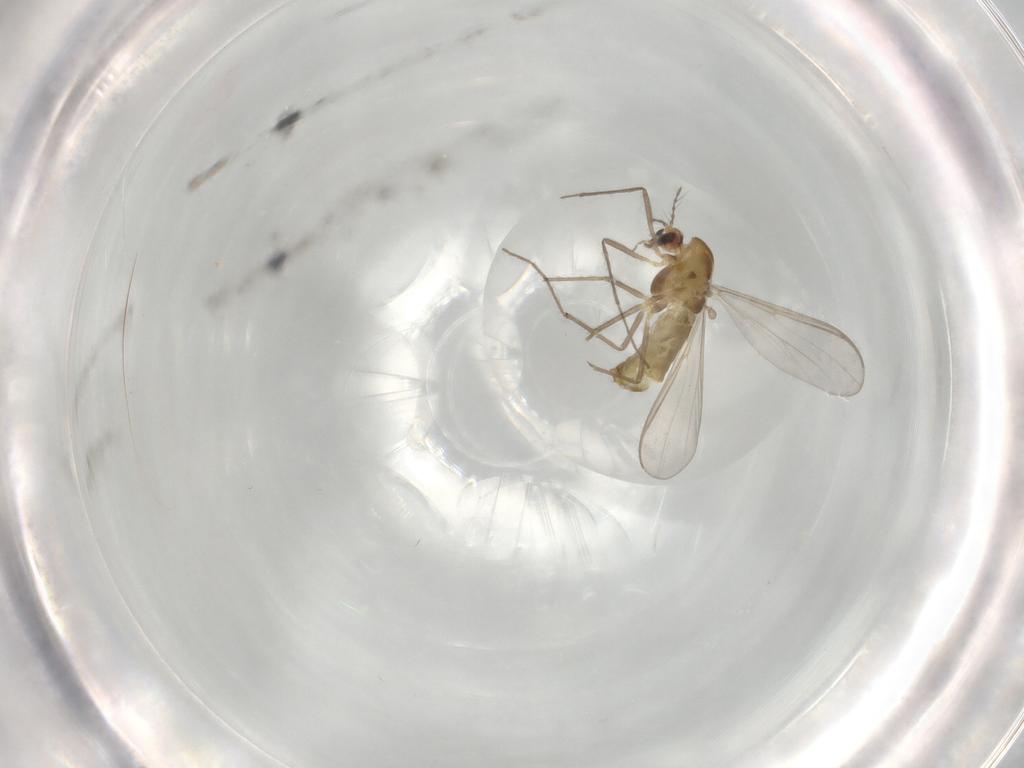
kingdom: Animalia
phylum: Arthropoda
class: Insecta
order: Diptera
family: Chironomidae
